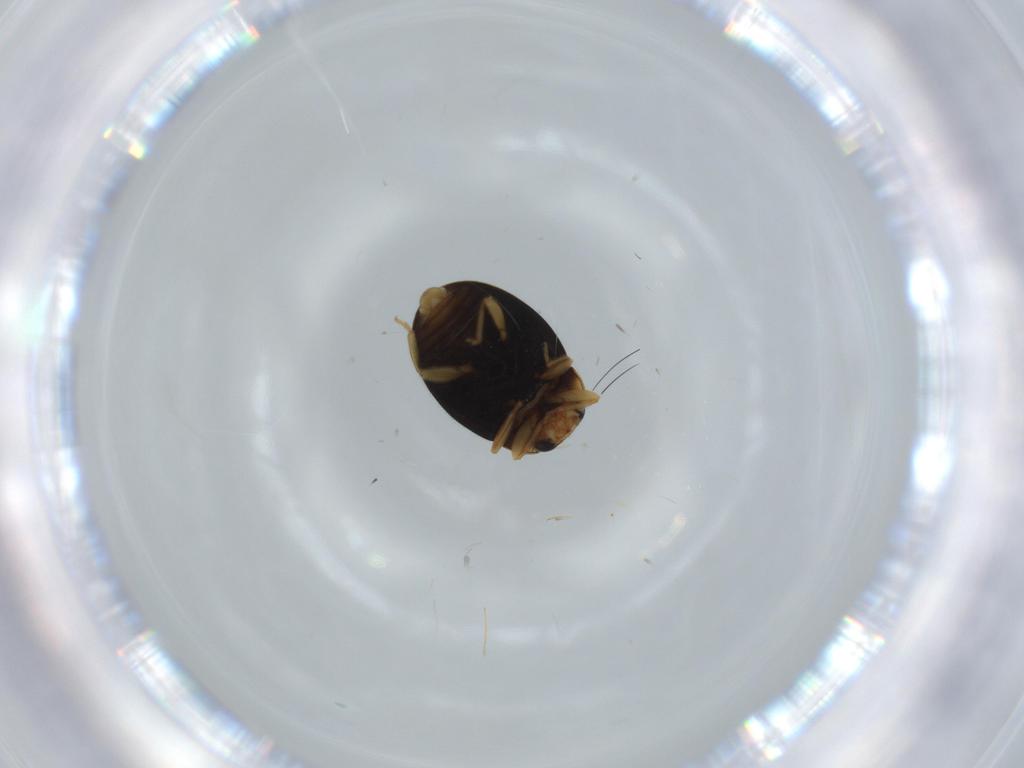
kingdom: Animalia
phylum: Arthropoda
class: Insecta
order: Coleoptera
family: Coccinellidae
